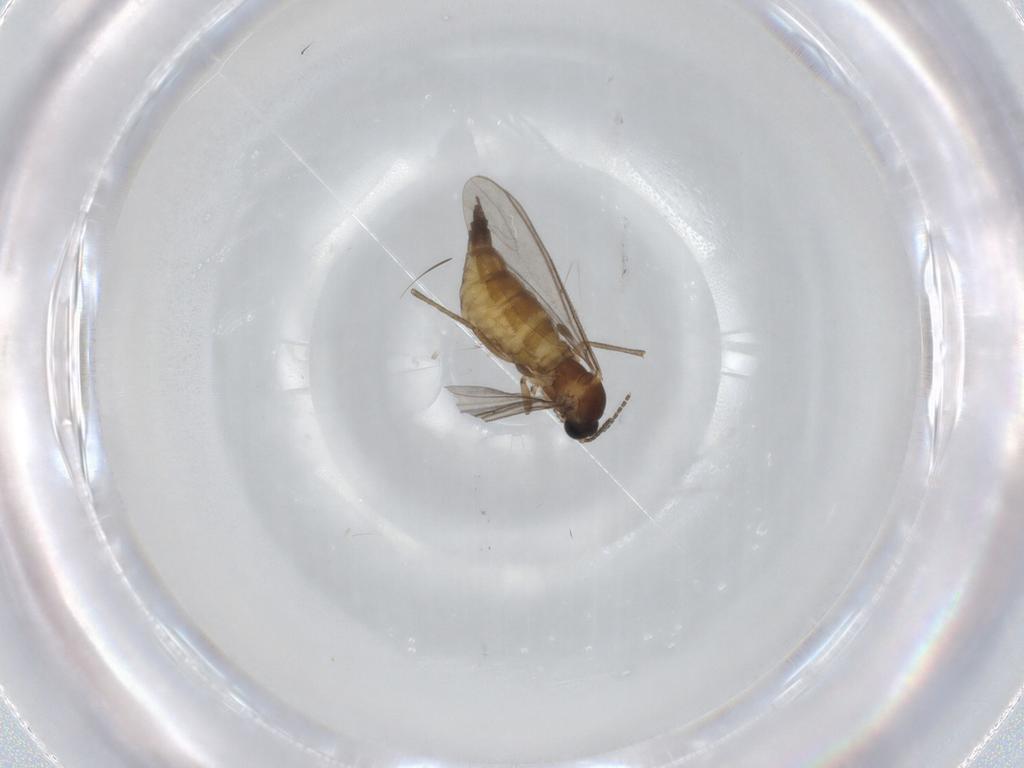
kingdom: Animalia
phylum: Arthropoda
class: Insecta
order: Diptera
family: Sciaridae
